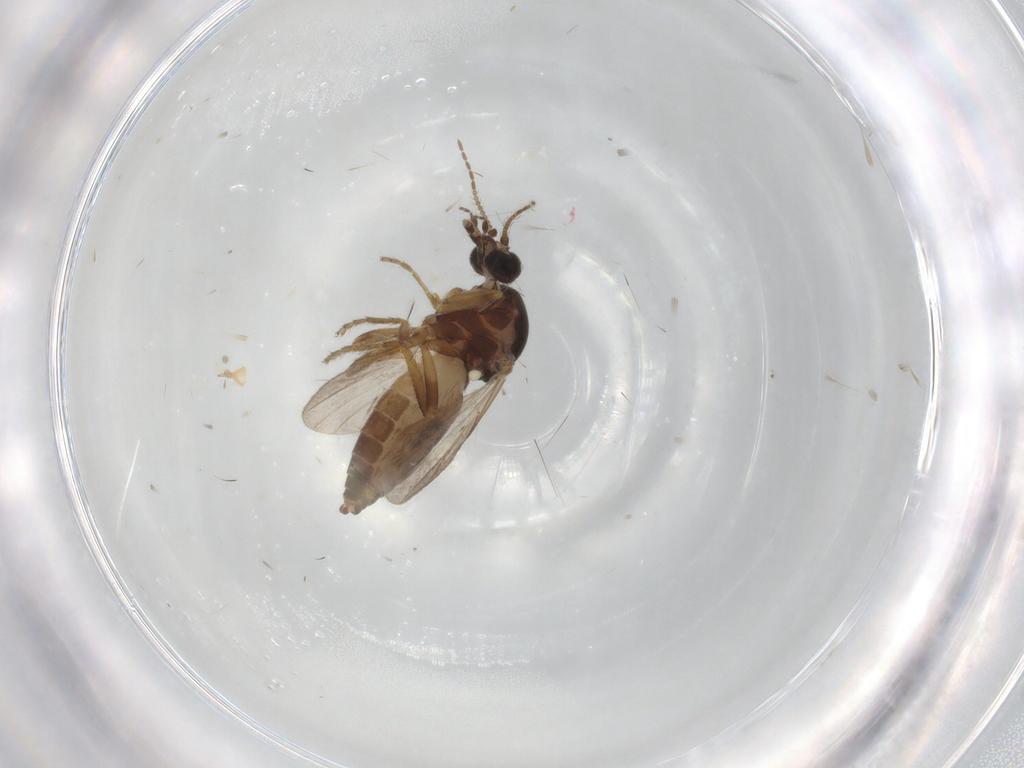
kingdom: Animalia
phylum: Arthropoda
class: Insecta
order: Diptera
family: Ceratopogonidae
